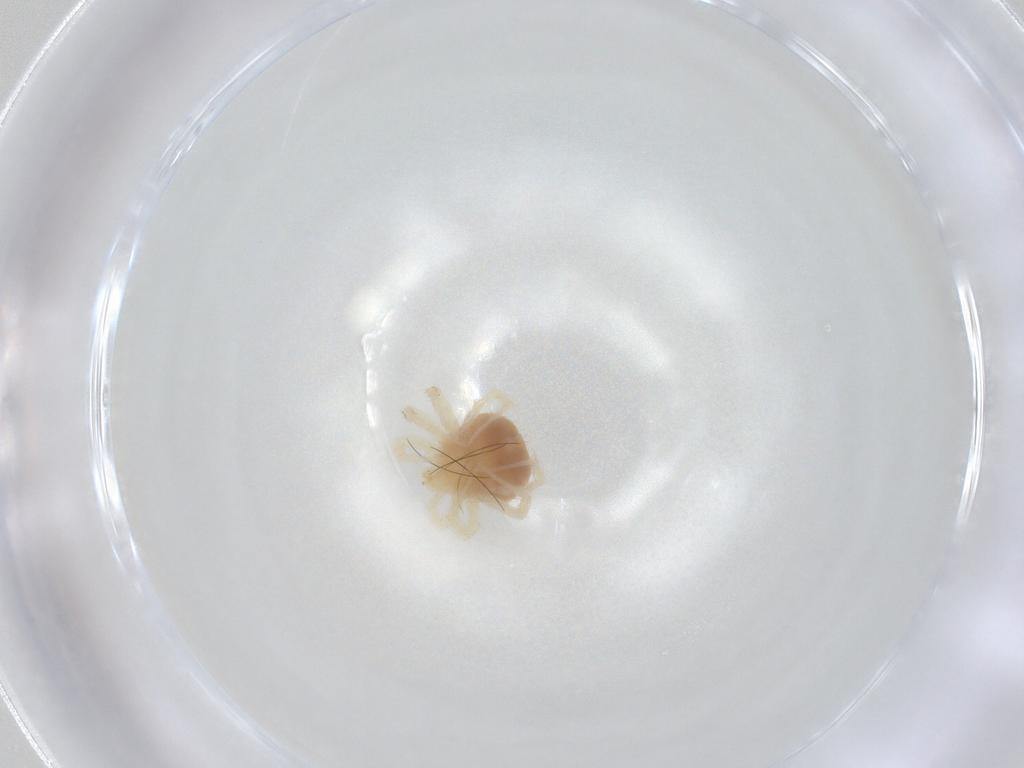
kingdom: Animalia
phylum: Arthropoda
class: Arachnida
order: Trombidiformes
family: Anystidae
